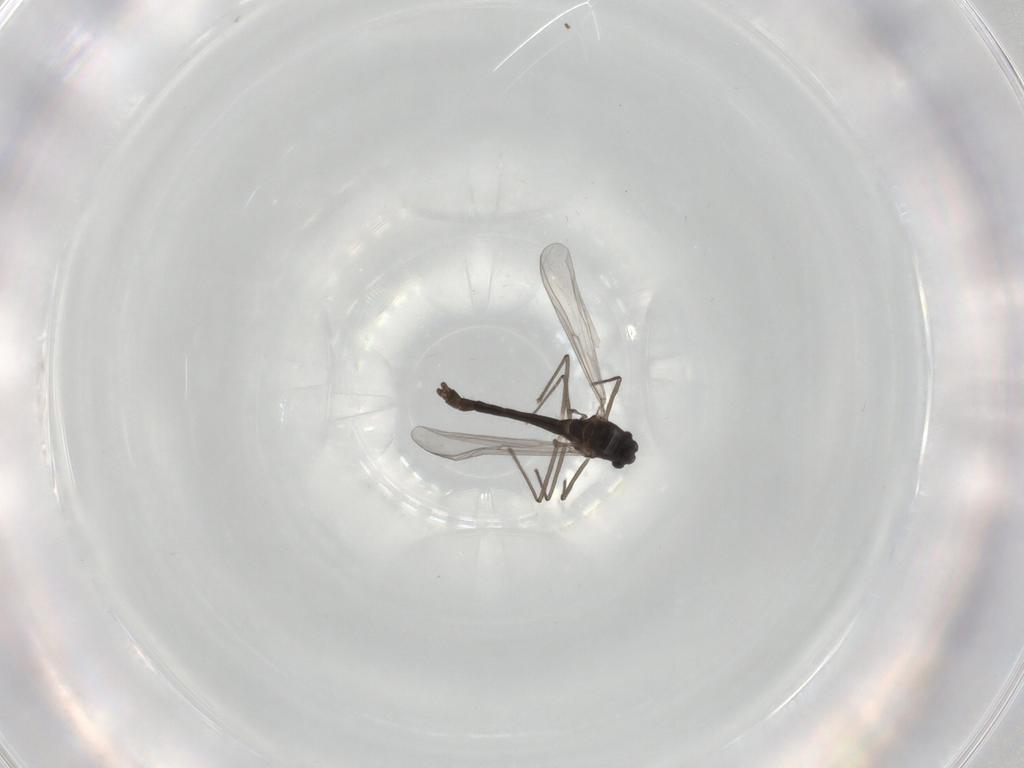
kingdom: Animalia
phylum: Arthropoda
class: Insecta
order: Diptera
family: Chironomidae
